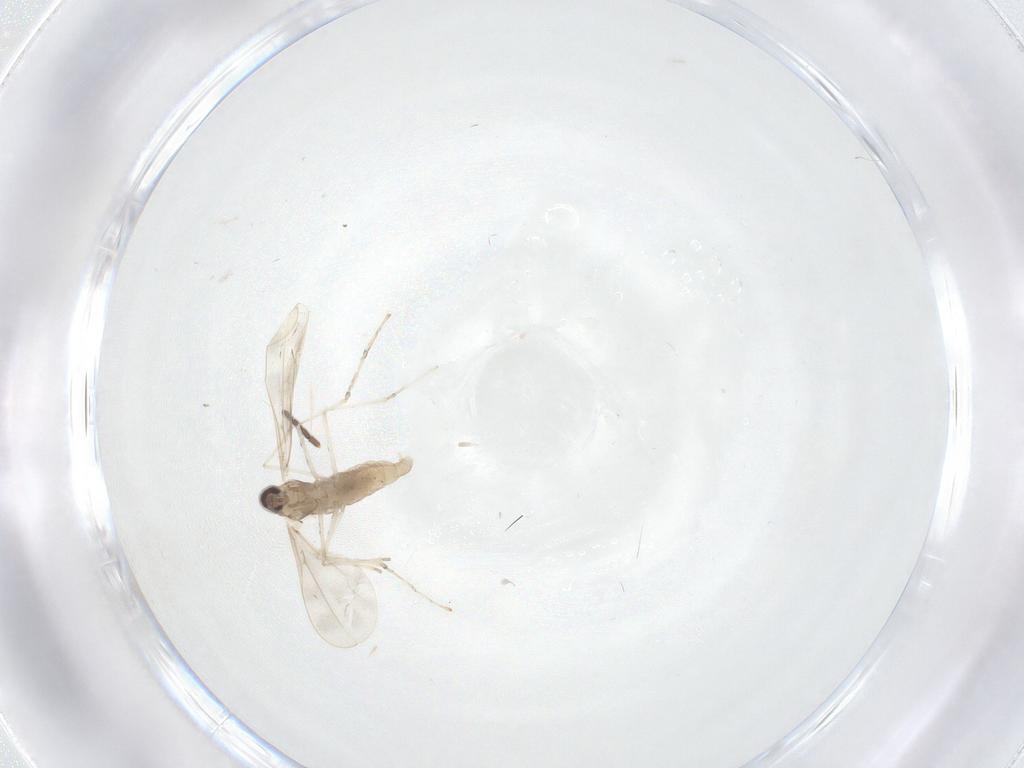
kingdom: Animalia
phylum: Arthropoda
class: Insecta
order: Diptera
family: Sciaridae
